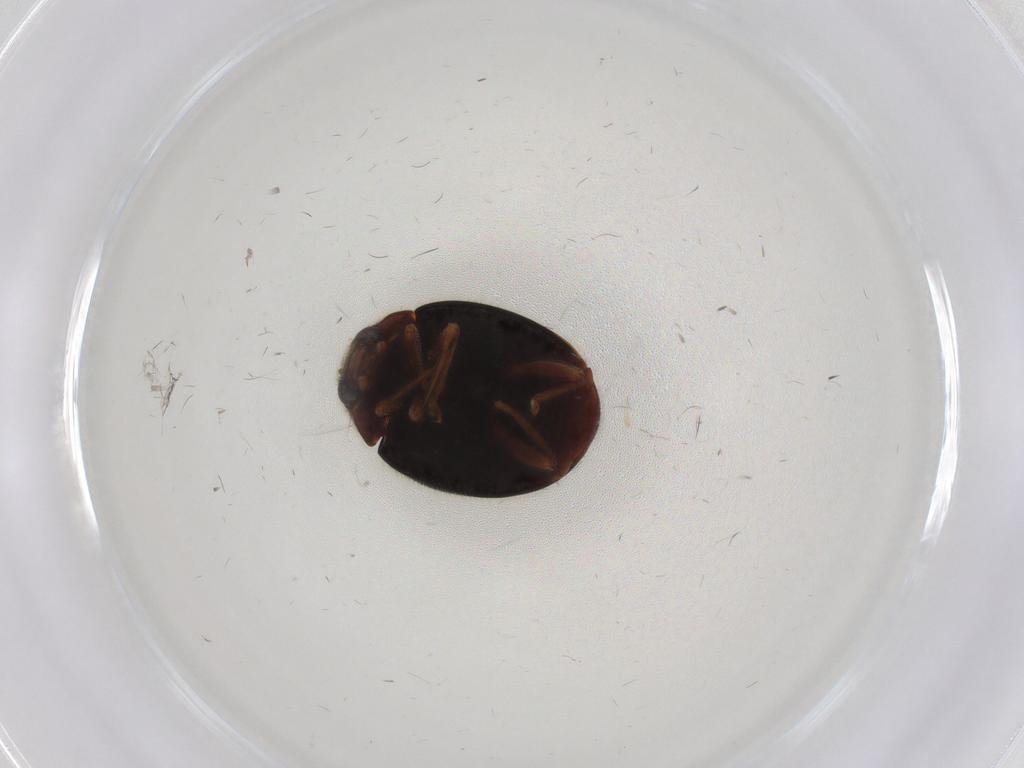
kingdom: Animalia
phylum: Arthropoda
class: Insecta
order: Coleoptera
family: Coccinellidae
